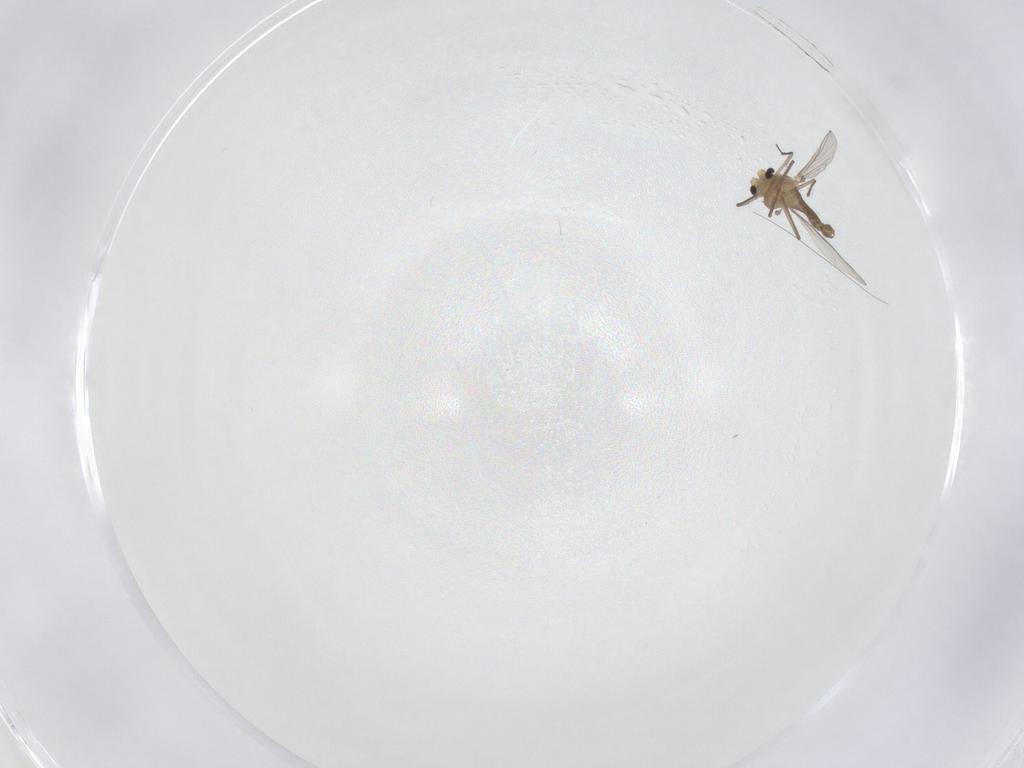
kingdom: Animalia
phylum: Arthropoda
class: Insecta
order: Diptera
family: Chironomidae
